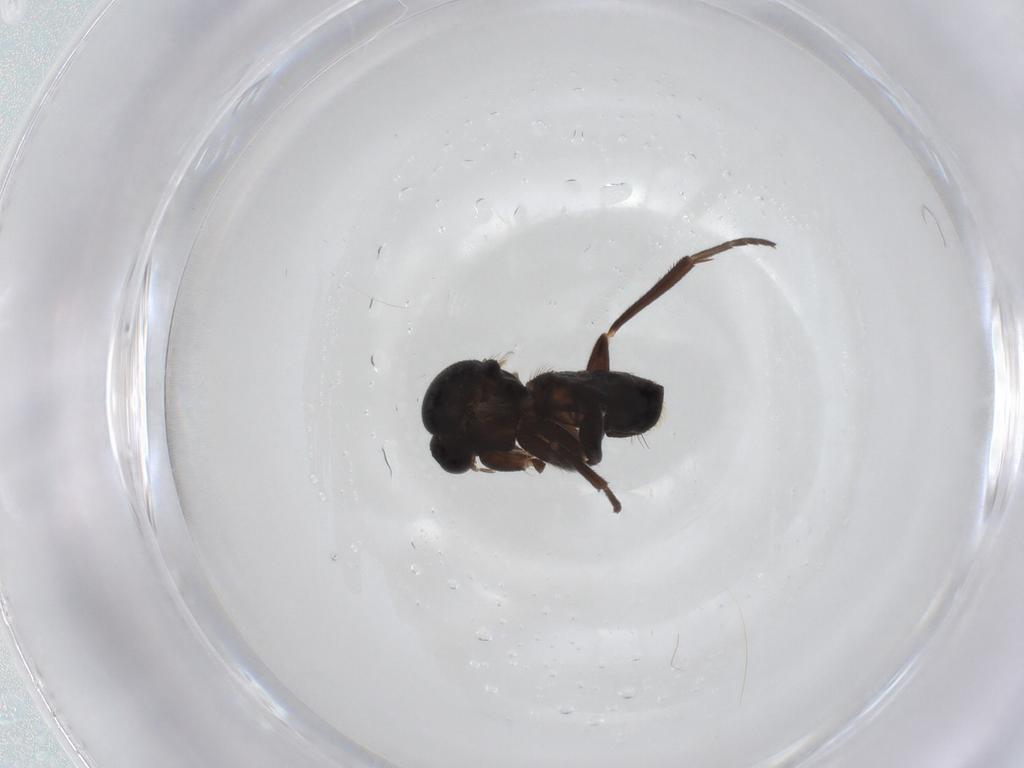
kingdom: Animalia
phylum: Arthropoda
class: Insecta
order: Diptera
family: Mycetophilidae
